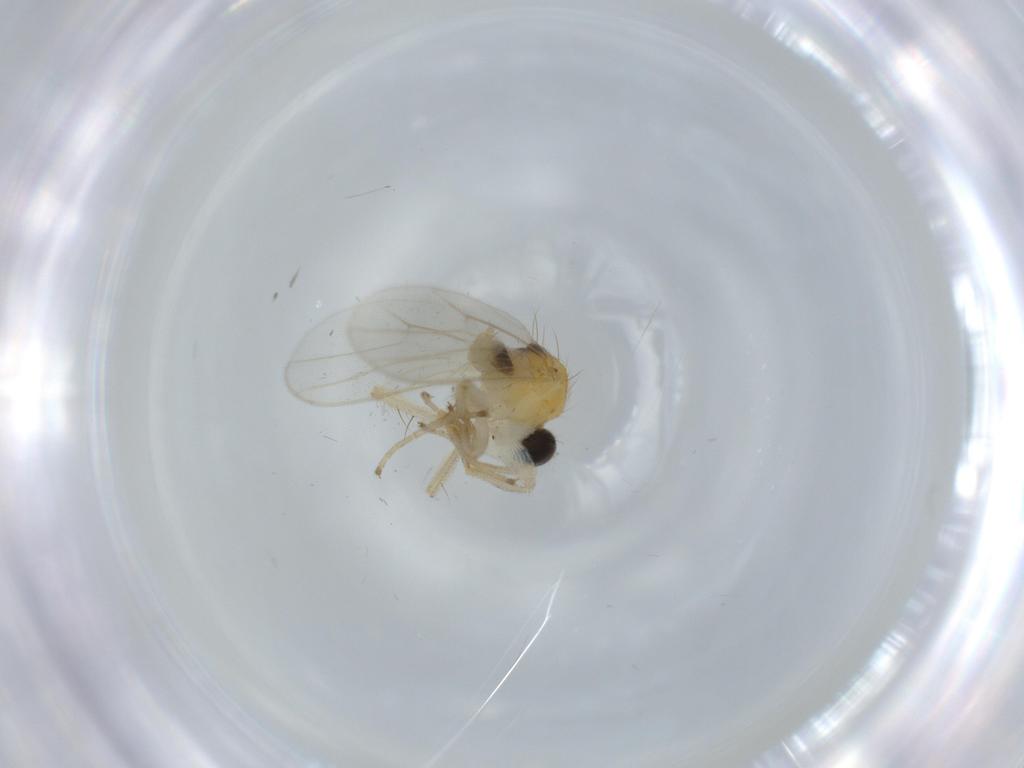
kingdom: Animalia
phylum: Arthropoda
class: Insecta
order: Diptera
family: Hybotidae
